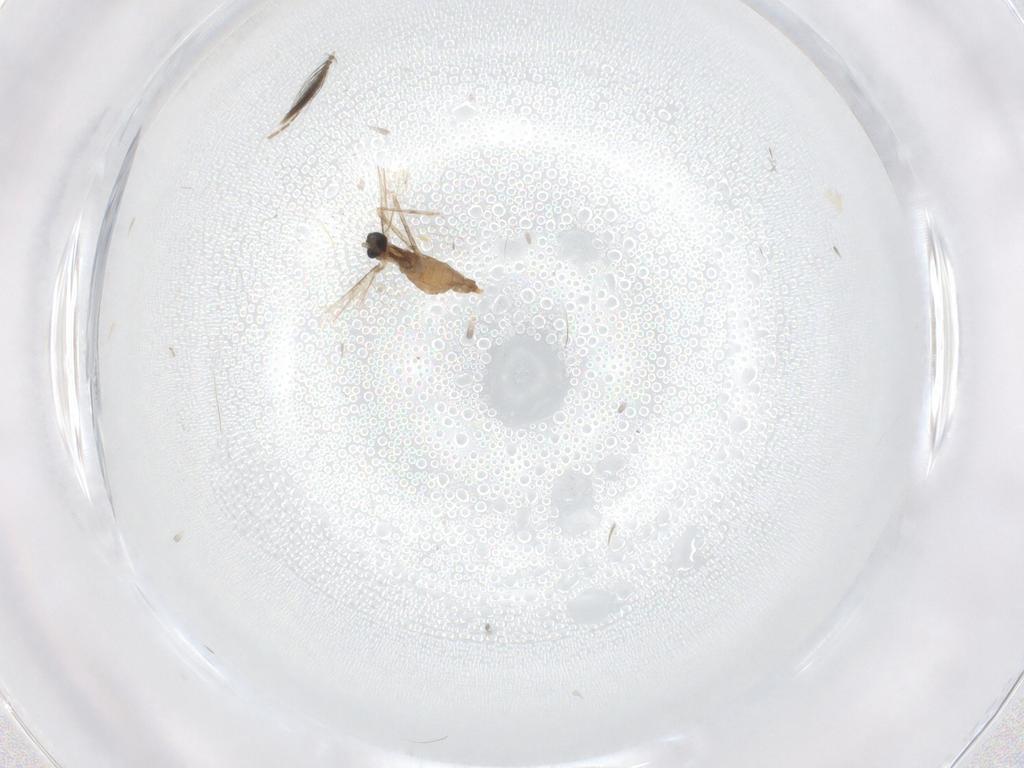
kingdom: Animalia
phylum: Arthropoda
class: Insecta
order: Diptera
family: Ceratopogonidae
